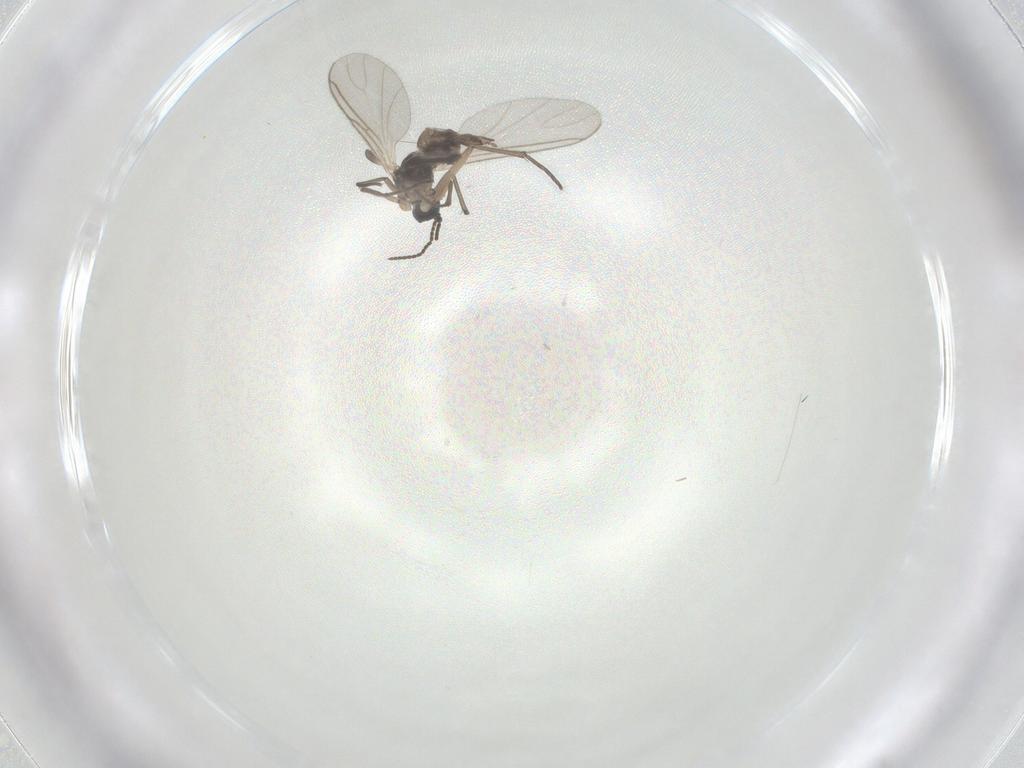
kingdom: Animalia
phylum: Arthropoda
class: Insecta
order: Diptera
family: Sciaridae
